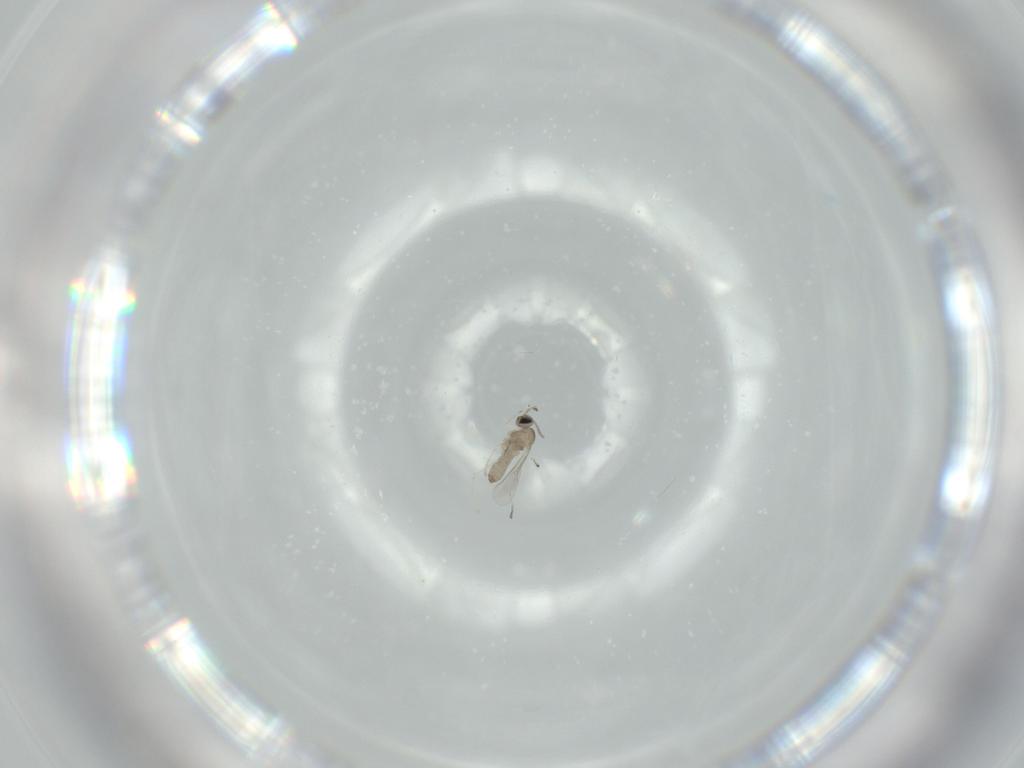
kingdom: Animalia
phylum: Arthropoda
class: Insecta
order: Diptera
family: Cecidomyiidae
